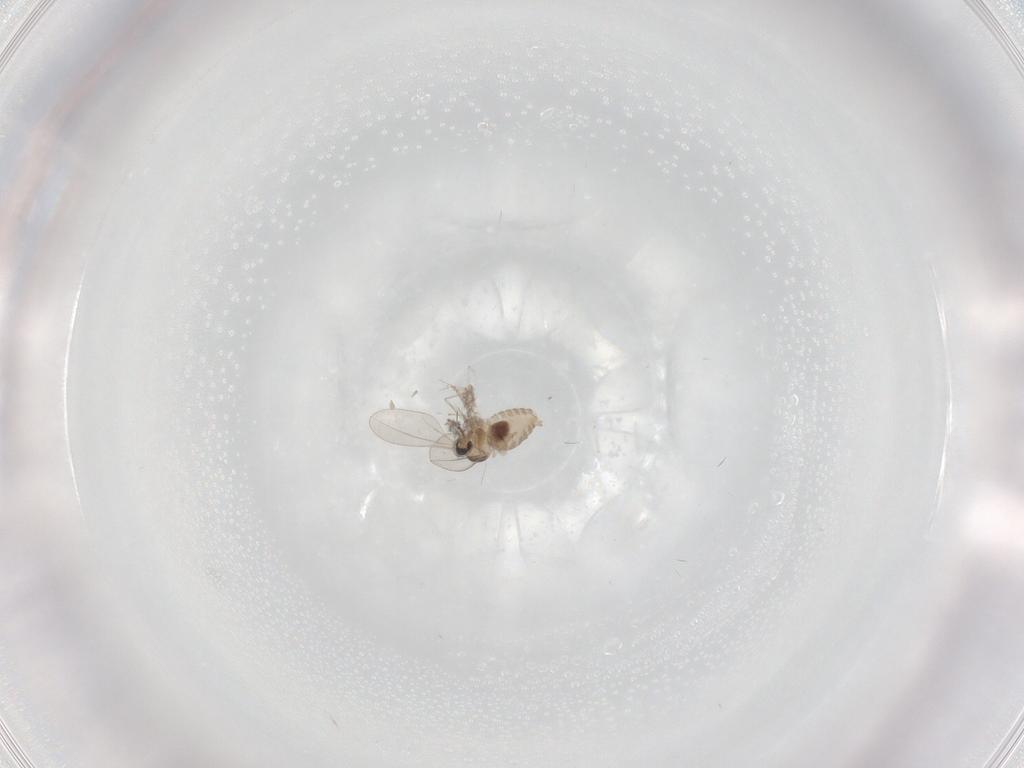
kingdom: Animalia
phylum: Arthropoda
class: Insecta
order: Diptera
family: Cecidomyiidae
